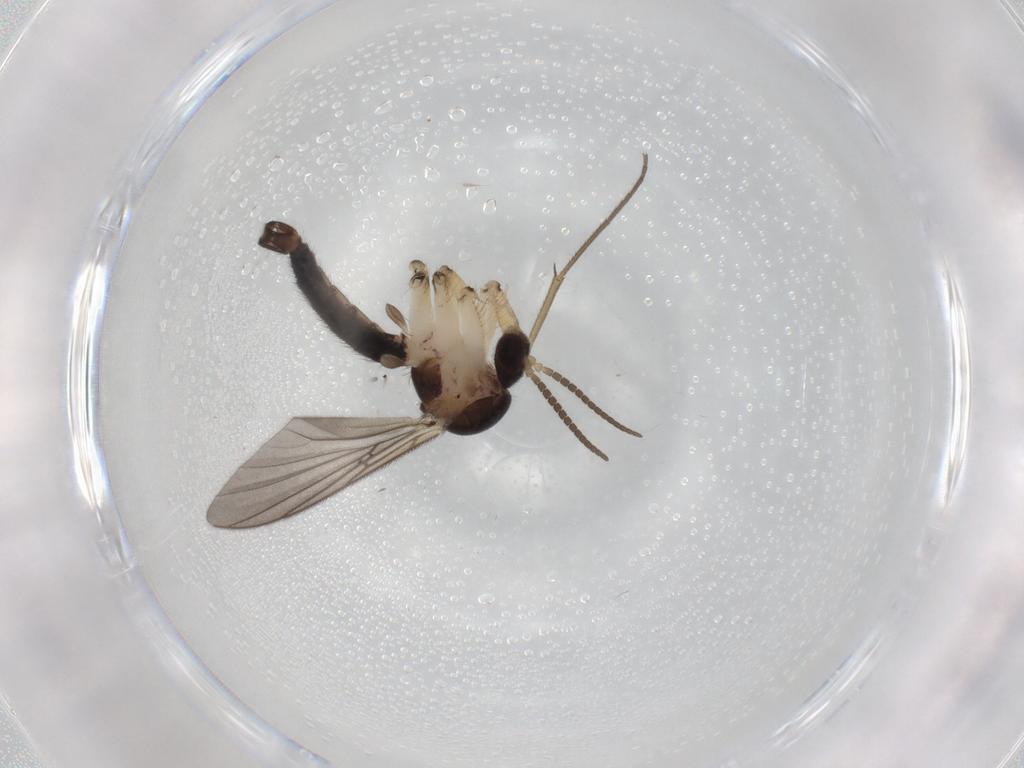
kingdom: Animalia
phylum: Arthropoda
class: Insecta
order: Diptera
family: Mycetophilidae
